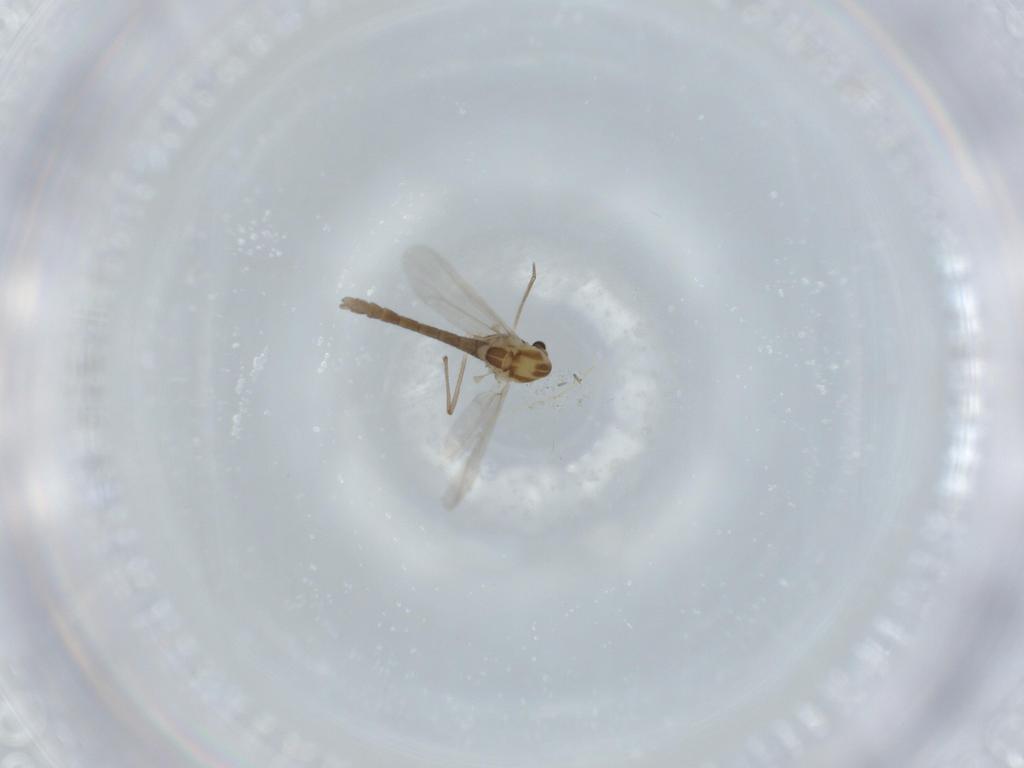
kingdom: Animalia
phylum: Arthropoda
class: Insecta
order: Diptera
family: Chironomidae
